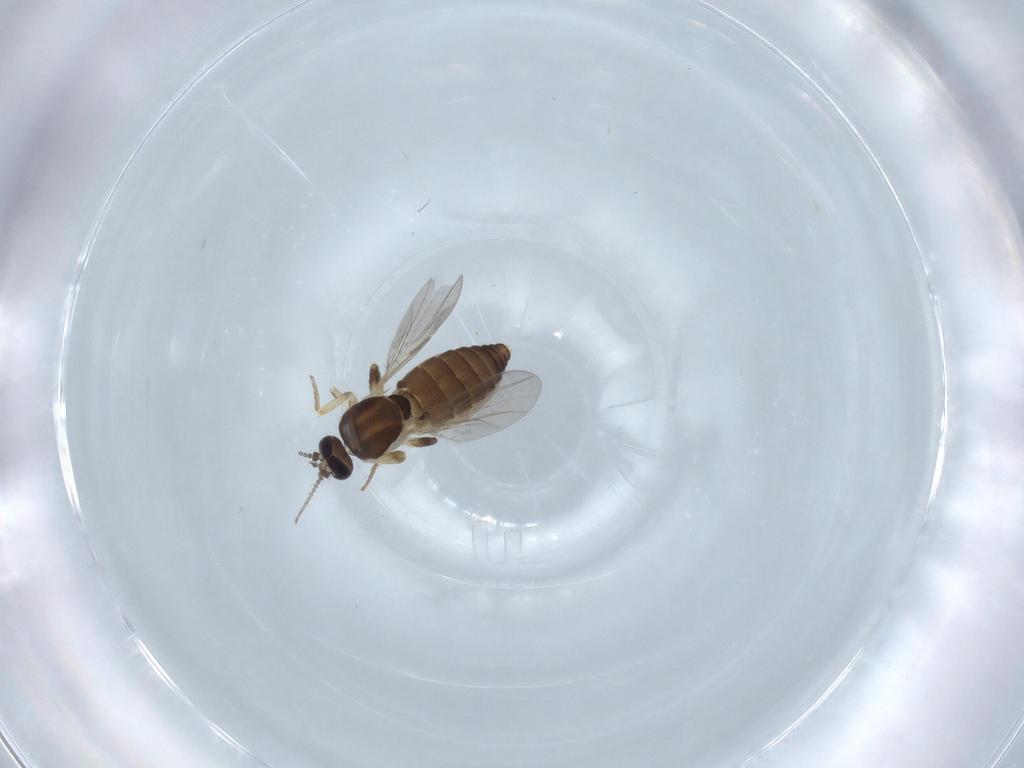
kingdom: Animalia
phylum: Arthropoda
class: Insecta
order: Diptera
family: Ceratopogonidae
